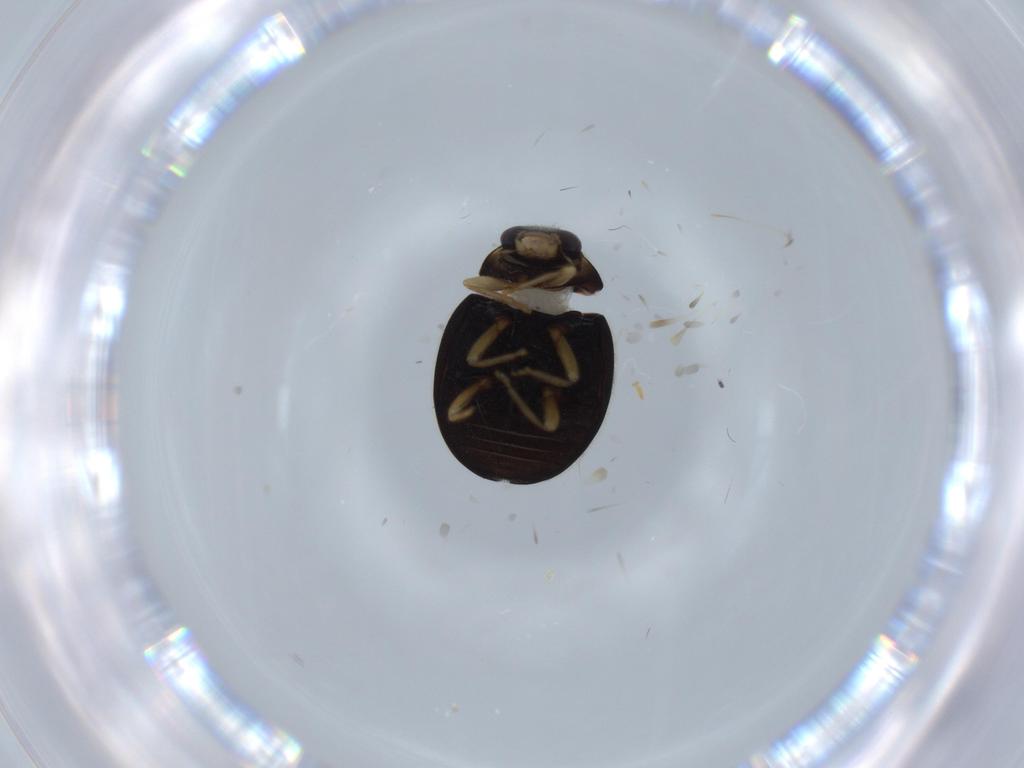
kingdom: Animalia
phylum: Arthropoda
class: Insecta
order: Coleoptera
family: Coccinellidae
